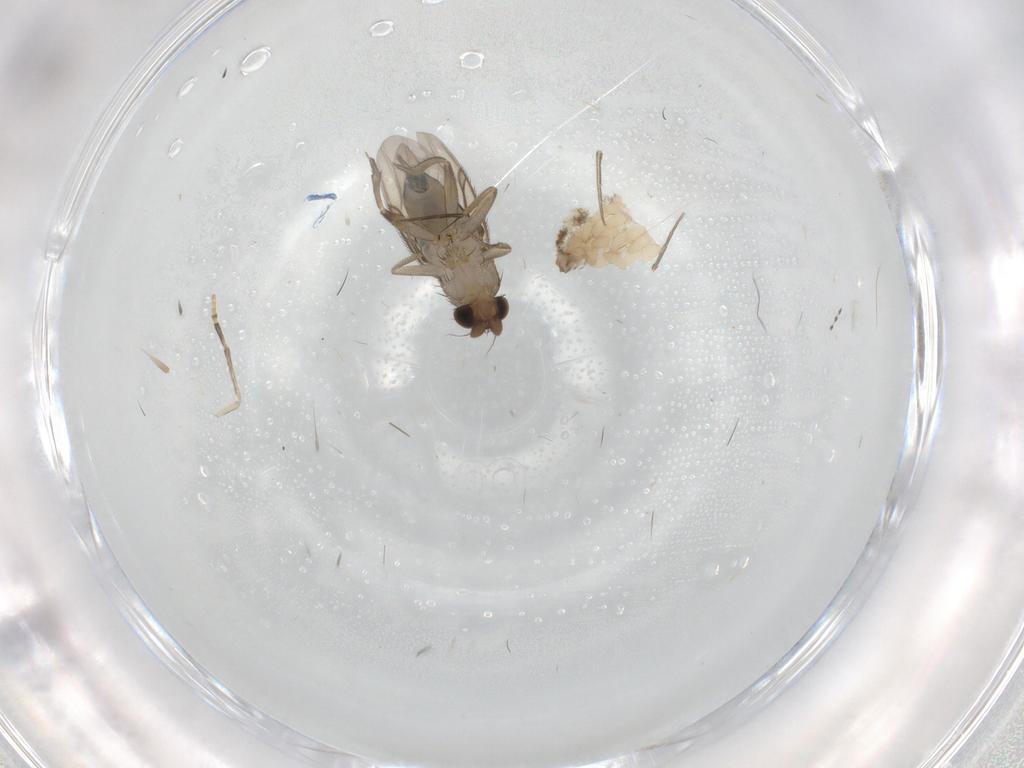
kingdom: Animalia
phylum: Arthropoda
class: Insecta
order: Diptera
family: Phoridae
